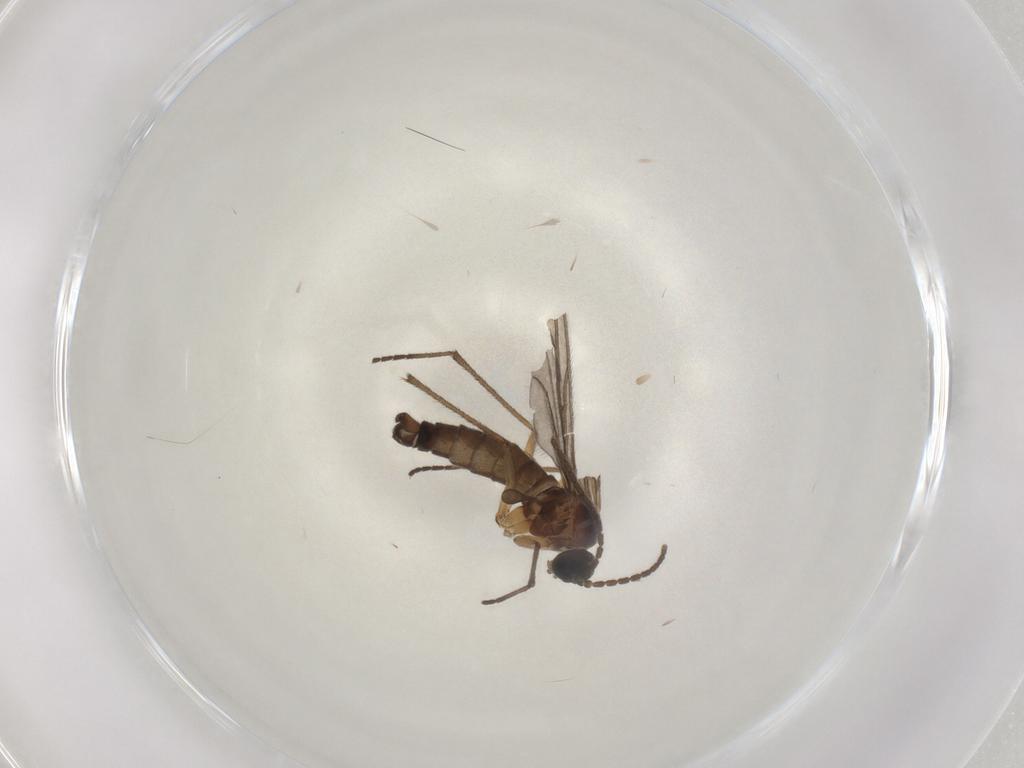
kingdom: Animalia
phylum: Arthropoda
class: Insecta
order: Diptera
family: Sciaridae
